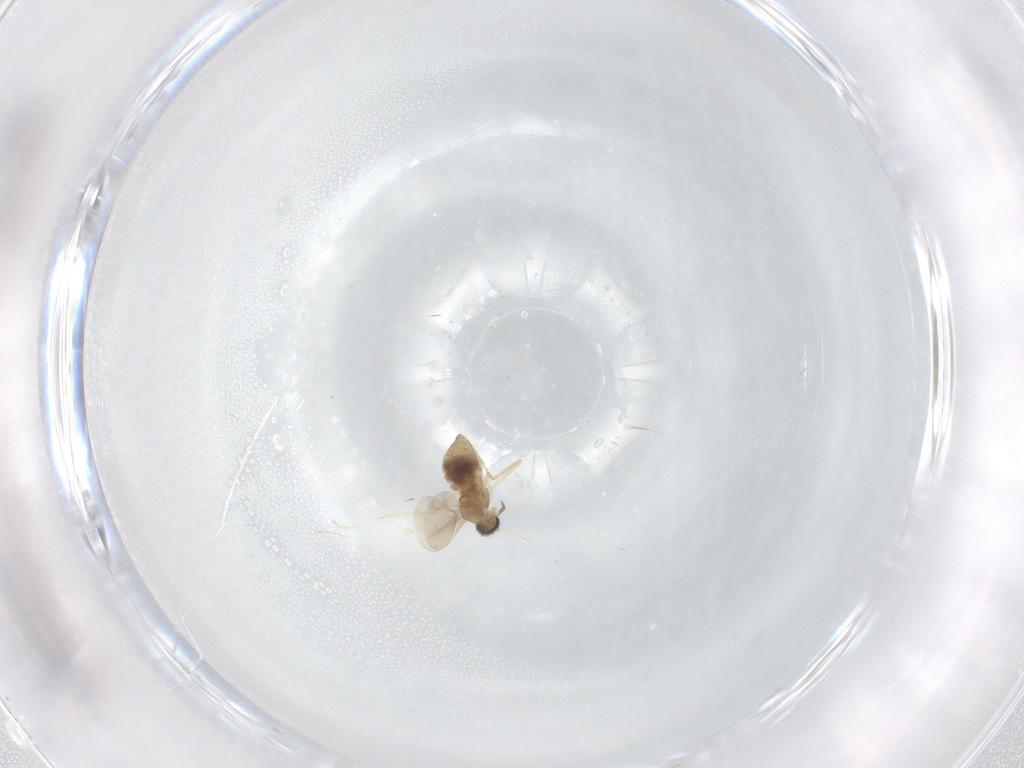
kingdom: Animalia
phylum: Arthropoda
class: Insecta
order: Diptera
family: Cecidomyiidae
